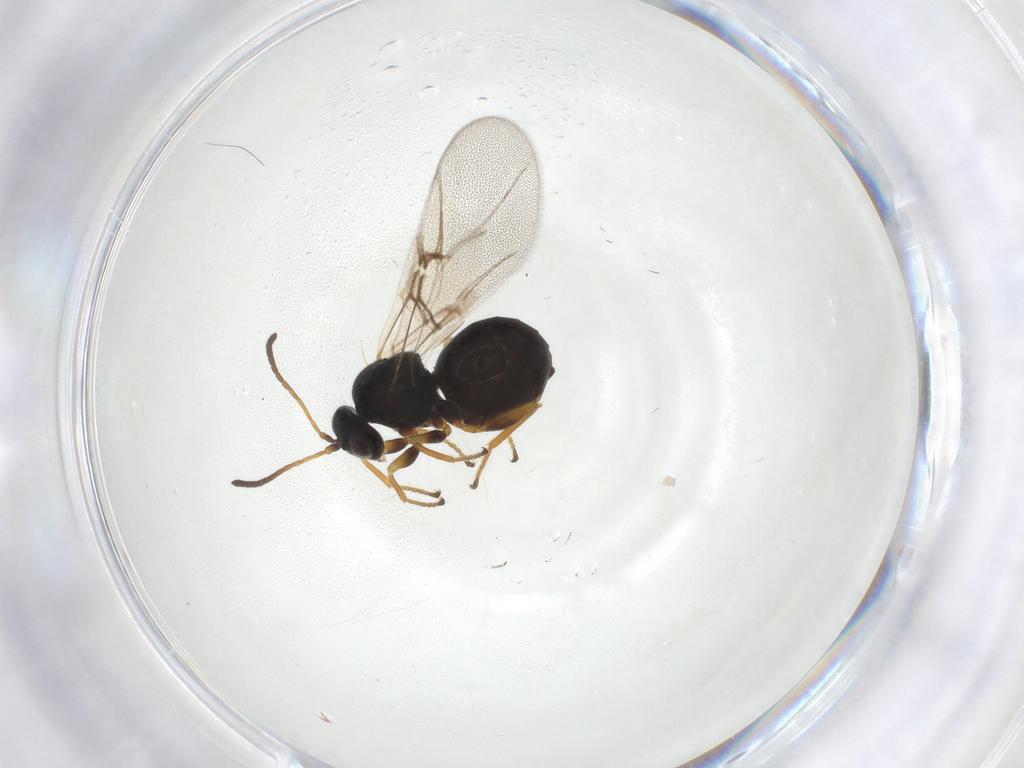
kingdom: Animalia
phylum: Arthropoda
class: Insecta
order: Hymenoptera
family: Cynipidae
